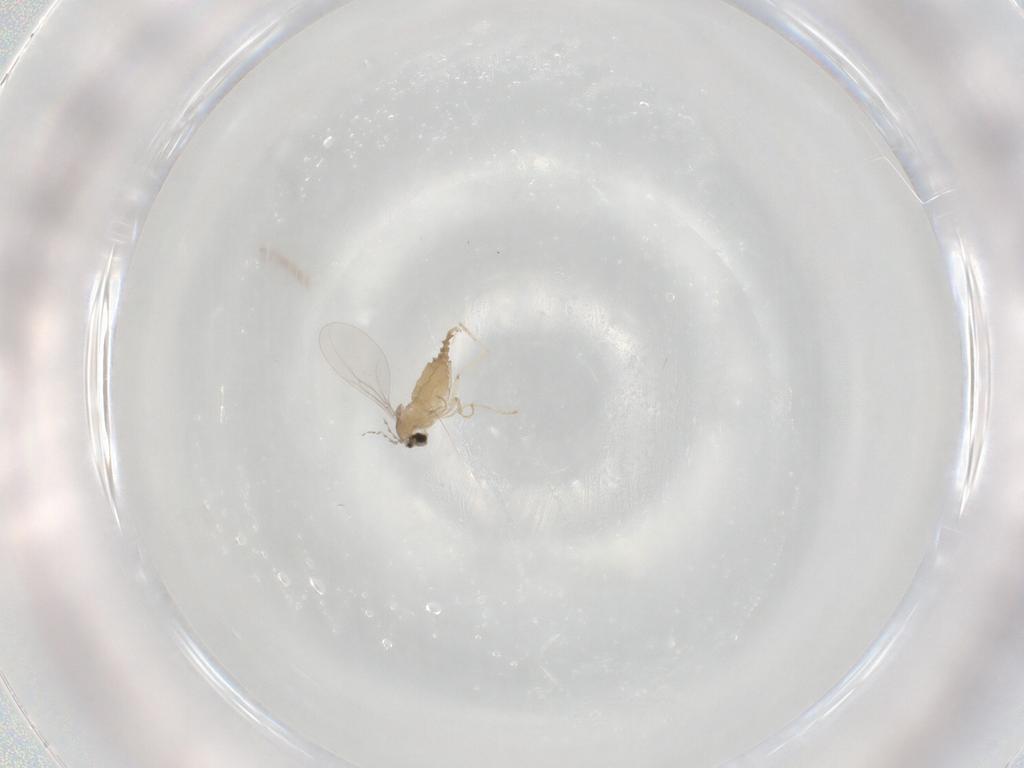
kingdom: Animalia
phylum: Arthropoda
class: Insecta
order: Diptera
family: Cecidomyiidae
